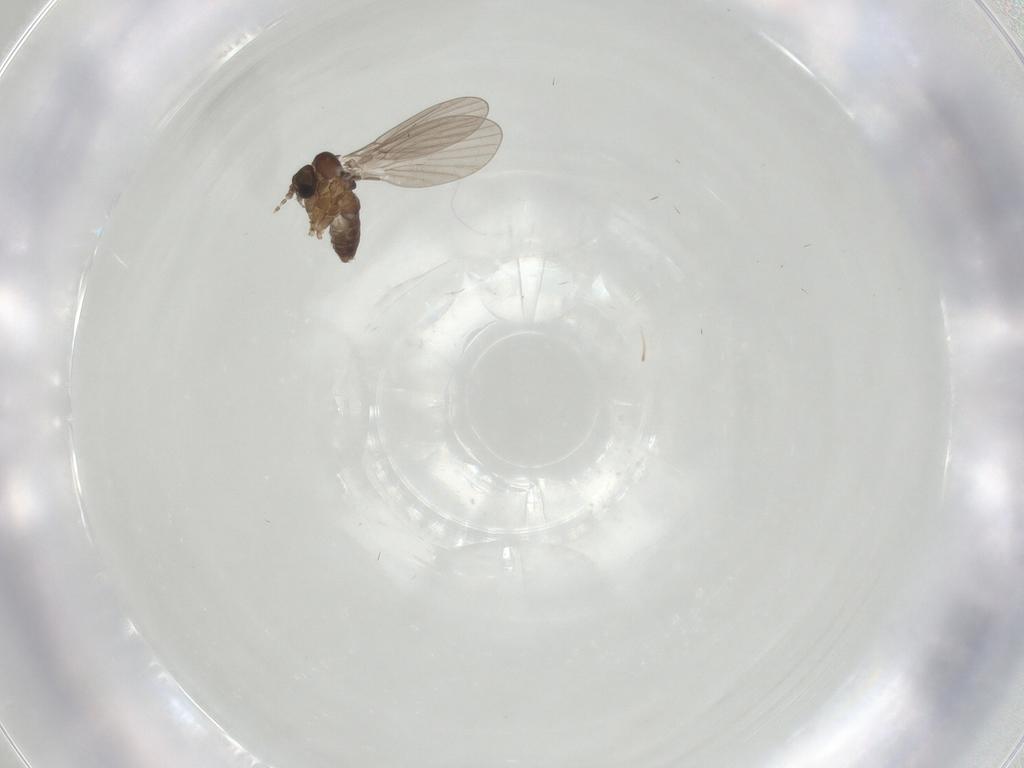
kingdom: Animalia
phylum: Arthropoda
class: Insecta
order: Diptera
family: Psychodidae
